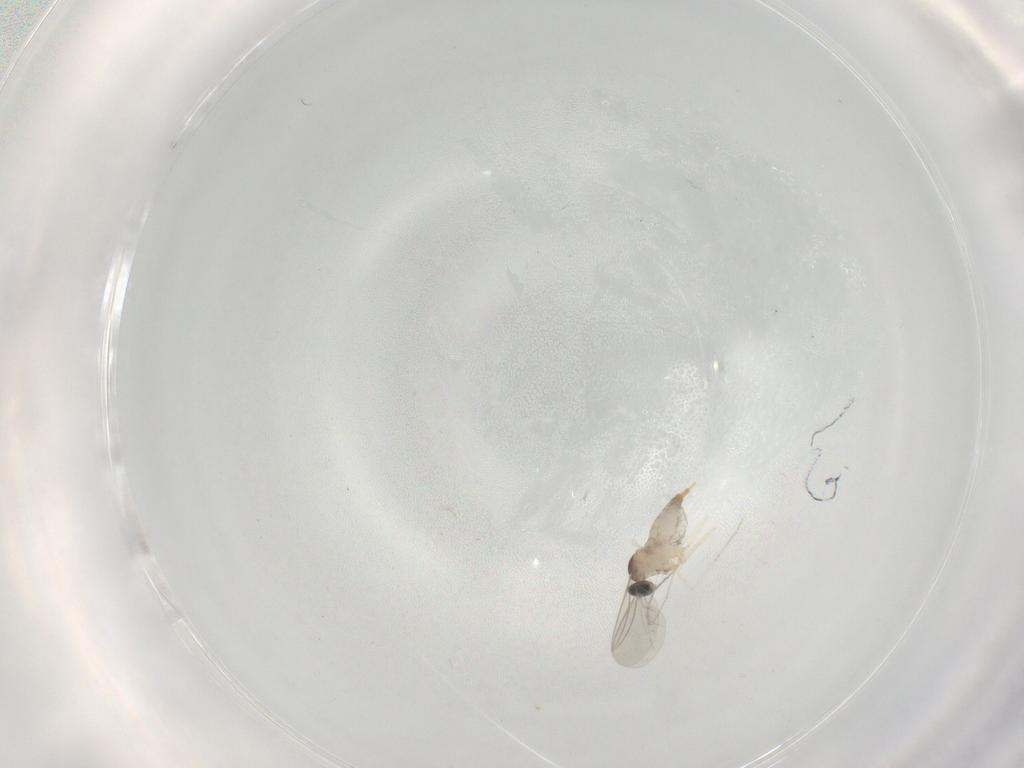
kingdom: Animalia
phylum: Arthropoda
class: Insecta
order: Diptera
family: Cecidomyiidae
